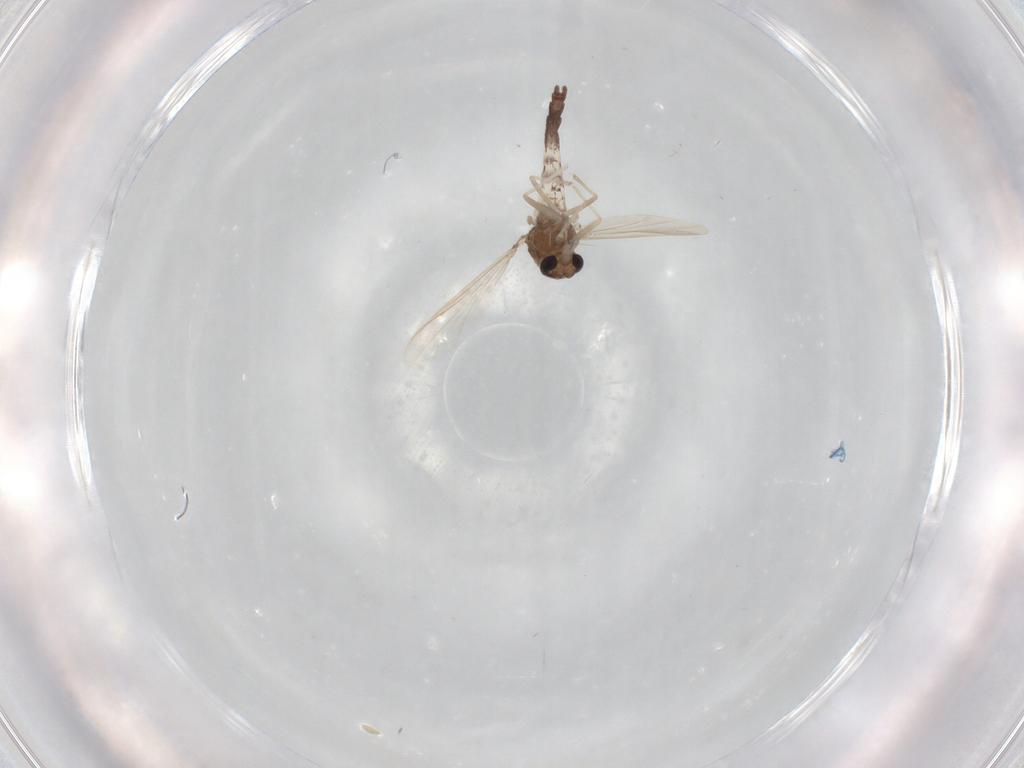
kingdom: Animalia
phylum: Arthropoda
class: Insecta
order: Diptera
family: Chironomidae
